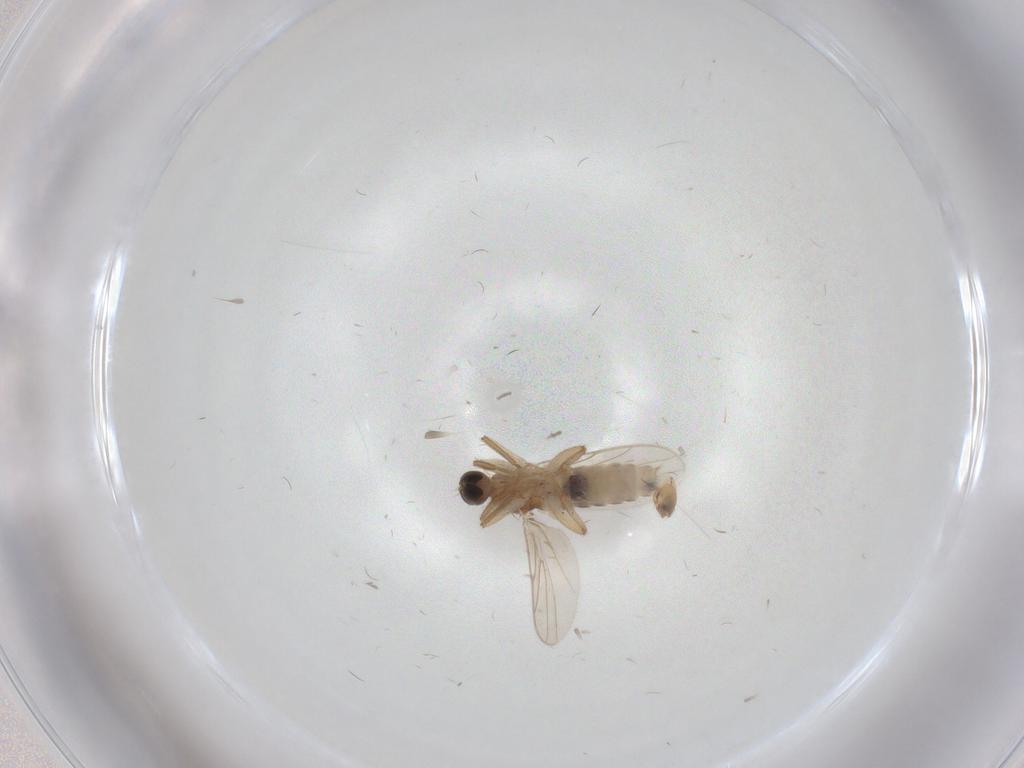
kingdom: Animalia
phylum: Arthropoda
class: Insecta
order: Diptera
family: Hybotidae
